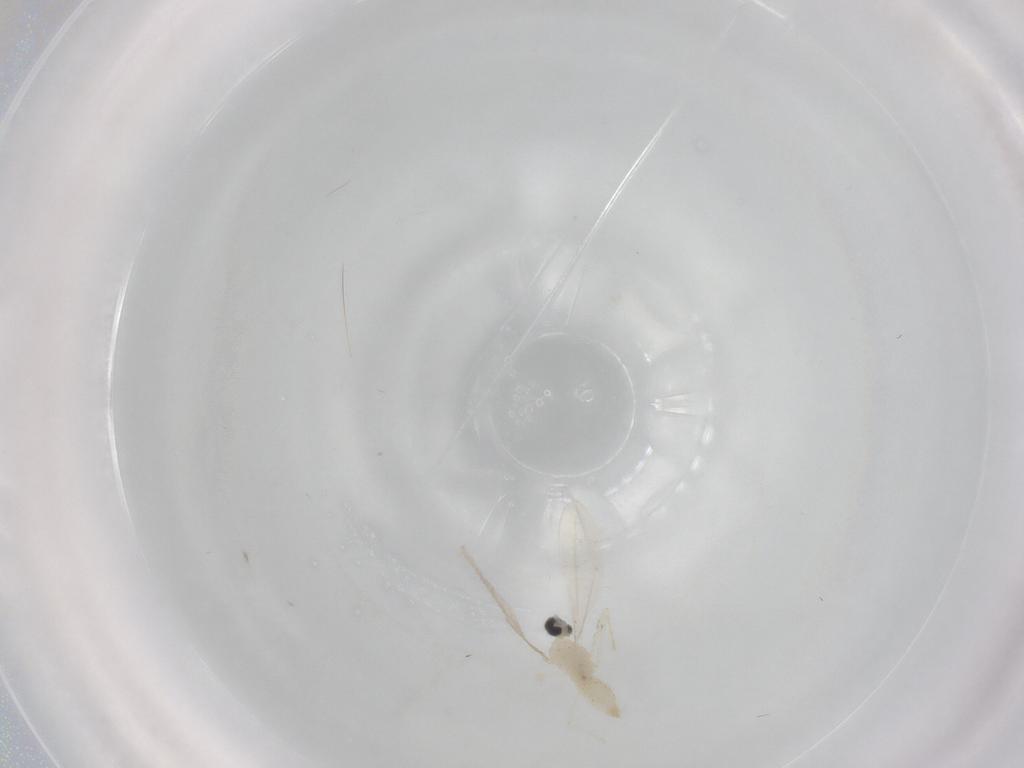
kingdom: Animalia
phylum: Arthropoda
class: Insecta
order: Diptera
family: Cecidomyiidae
